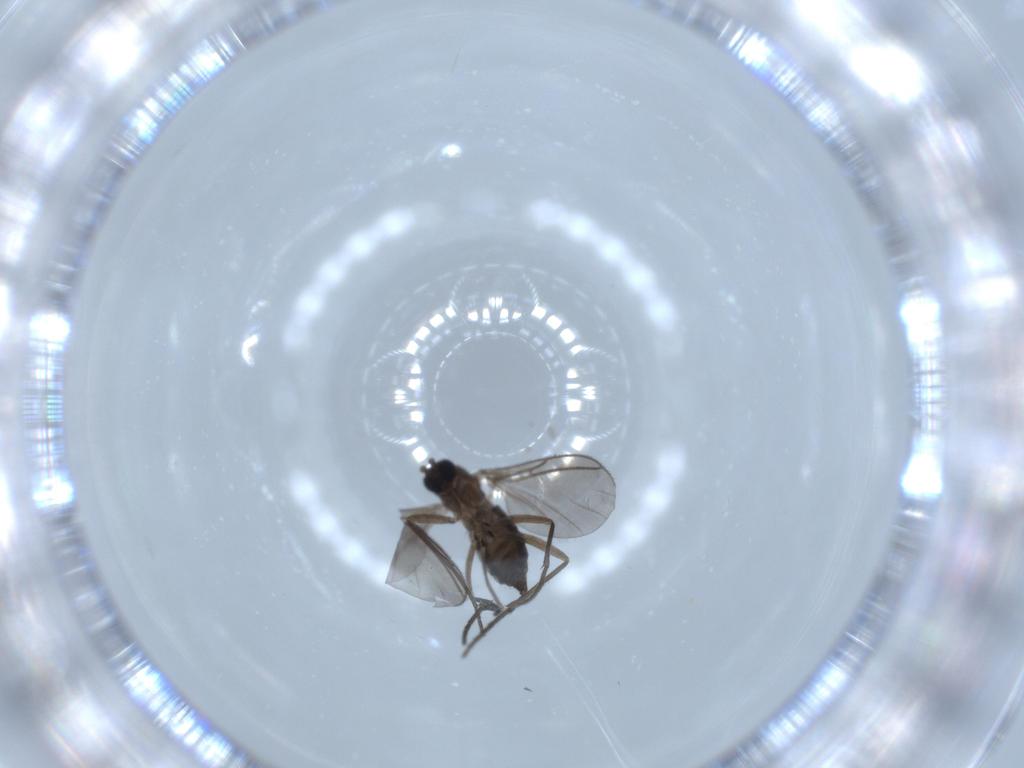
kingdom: Animalia
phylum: Arthropoda
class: Insecta
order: Diptera
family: Sciaridae
